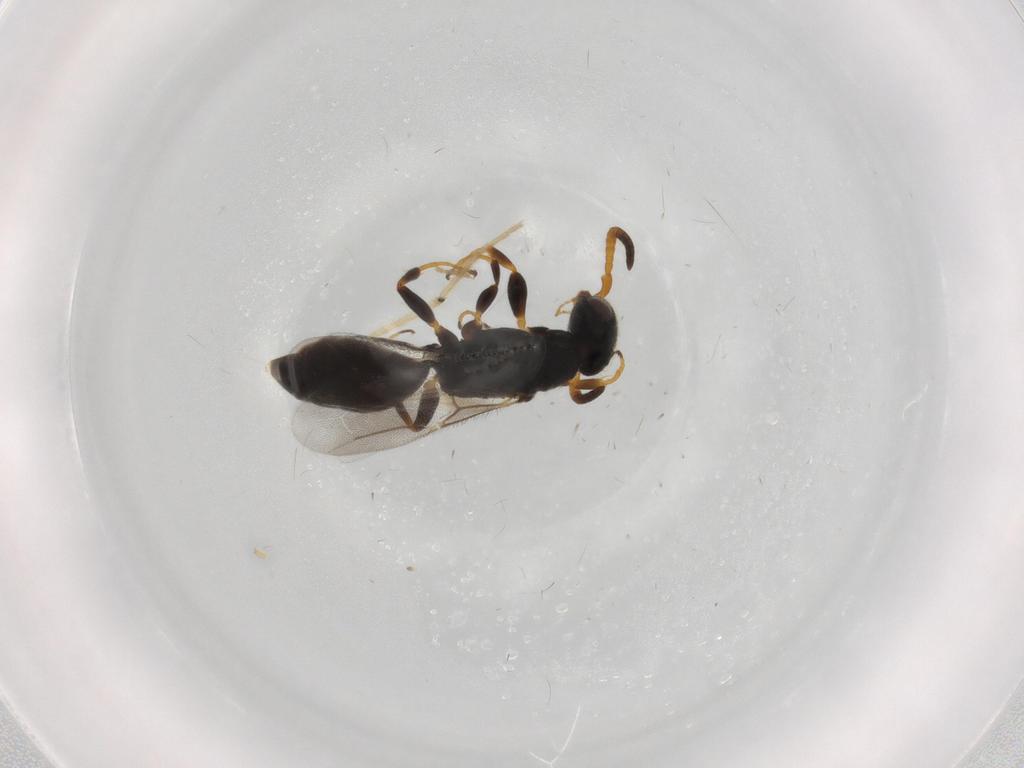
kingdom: Animalia
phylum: Arthropoda
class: Insecta
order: Hymenoptera
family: Bethylidae
